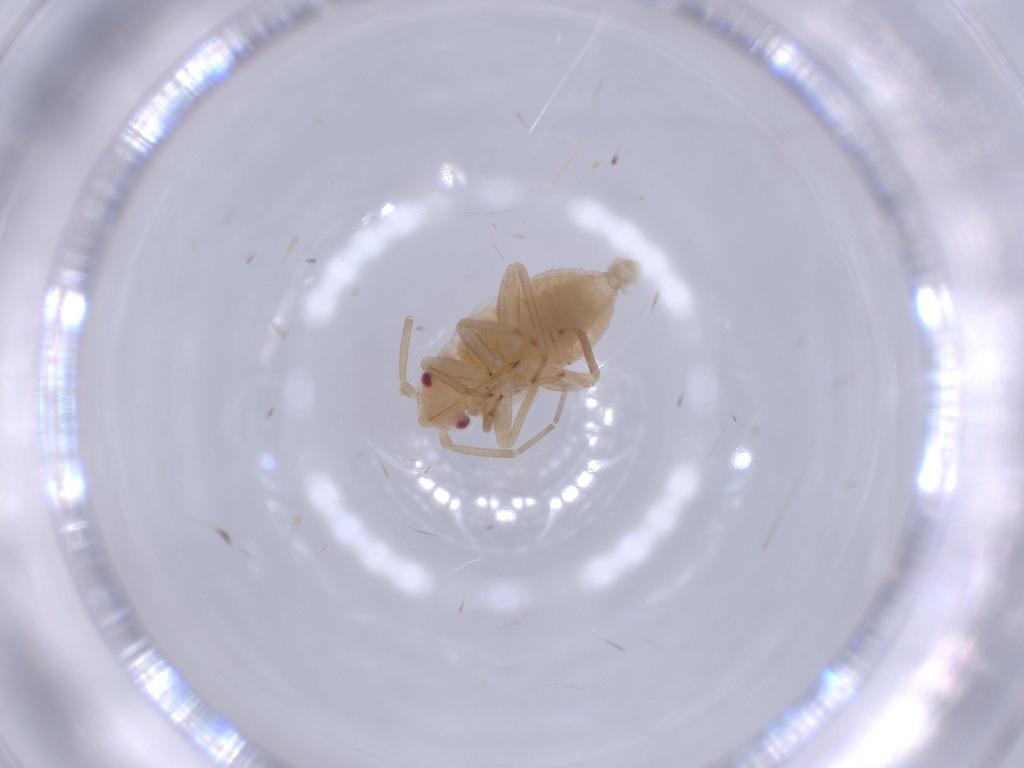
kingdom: Animalia
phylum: Arthropoda
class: Insecta
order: Hemiptera
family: Miridae
